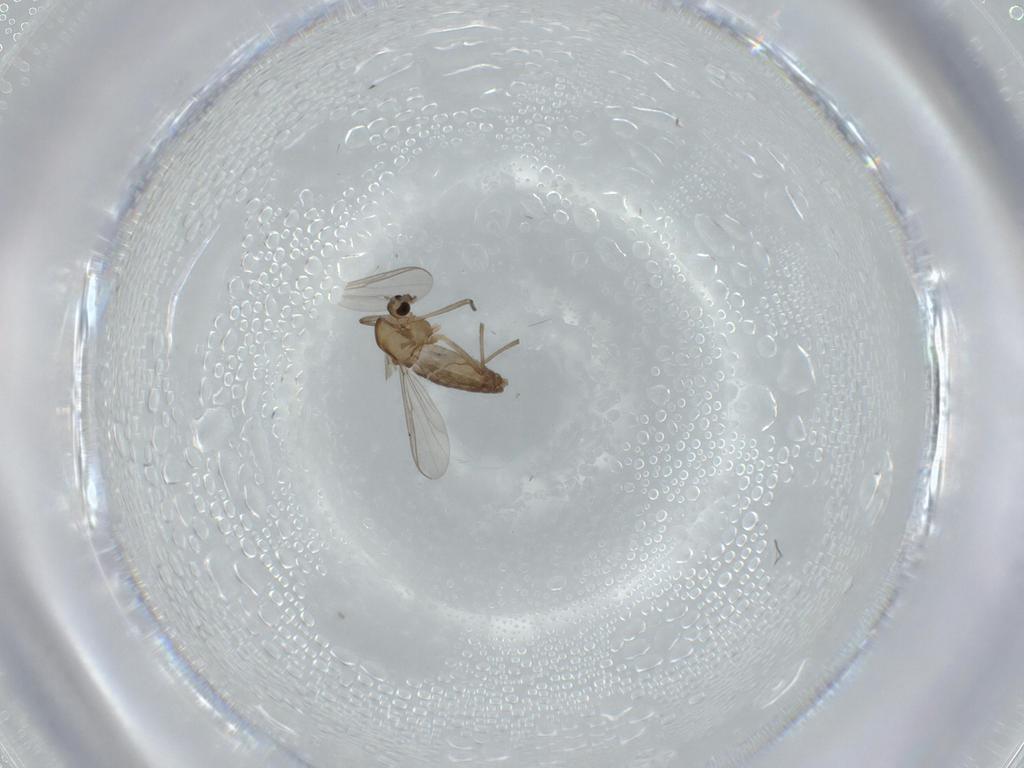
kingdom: Animalia
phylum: Arthropoda
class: Insecta
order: Diptera
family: Chironomidae
